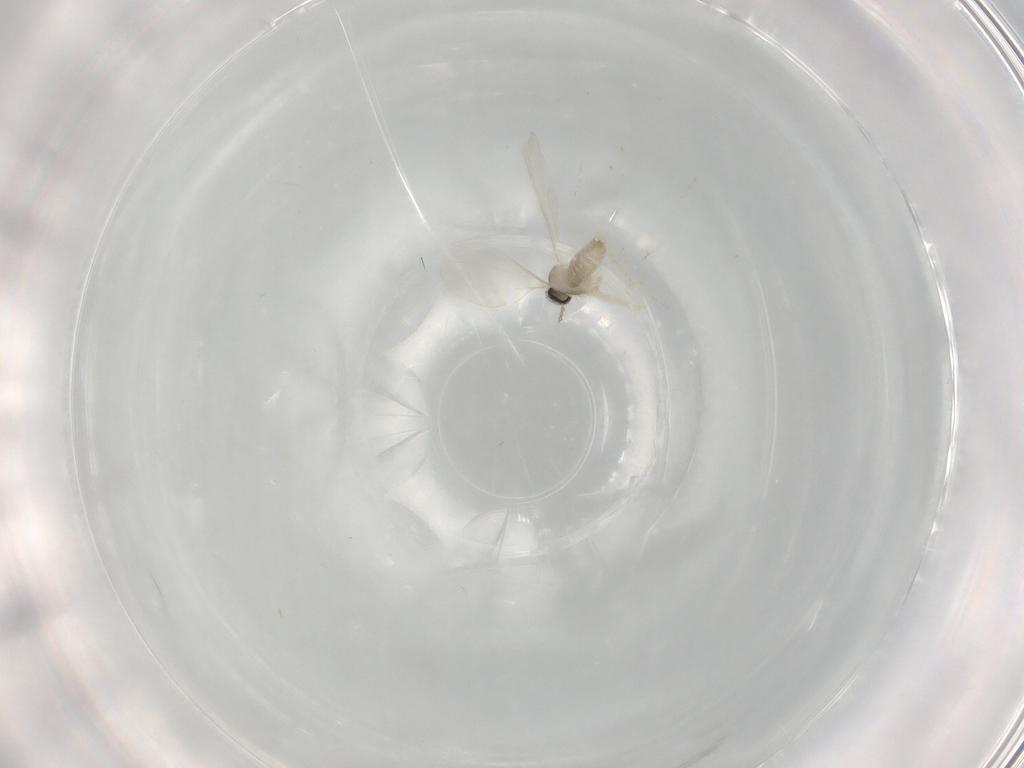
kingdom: Animalia
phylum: Arthropoda
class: Insecta
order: Diptera
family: Cecidomyiidae
